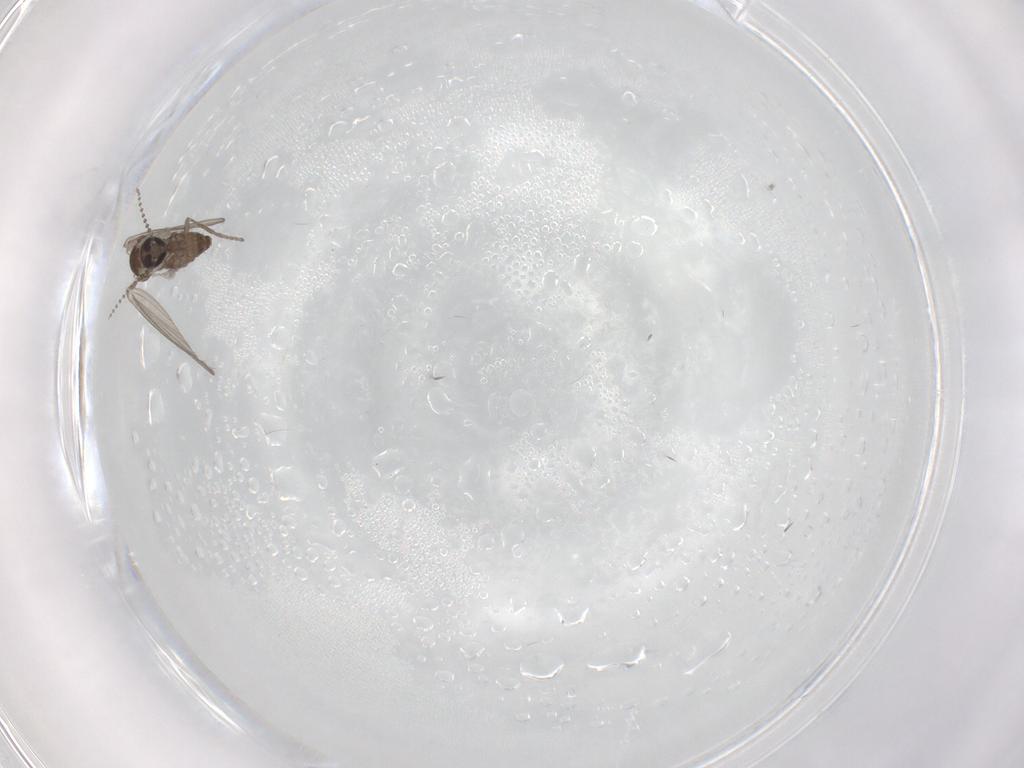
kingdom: Animalia
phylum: Arthropoda
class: Insecta
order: Diptera
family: Psychodidae
